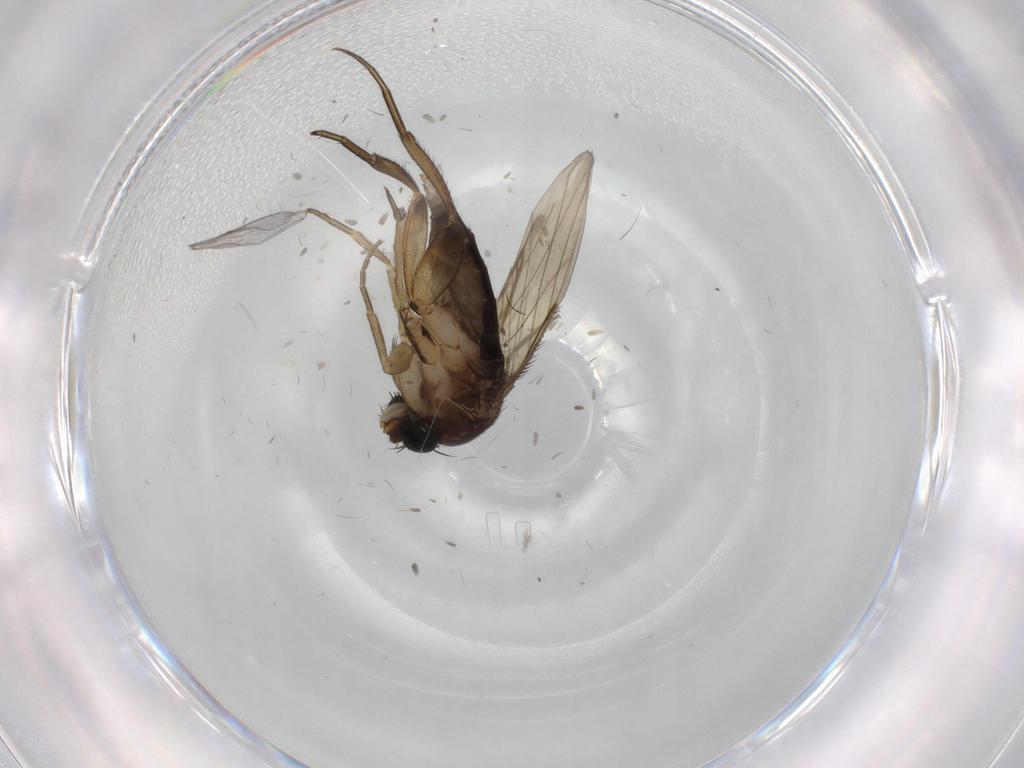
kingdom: Animalia
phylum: Arthropoda
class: Insecta
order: Diptera
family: Phoridae
